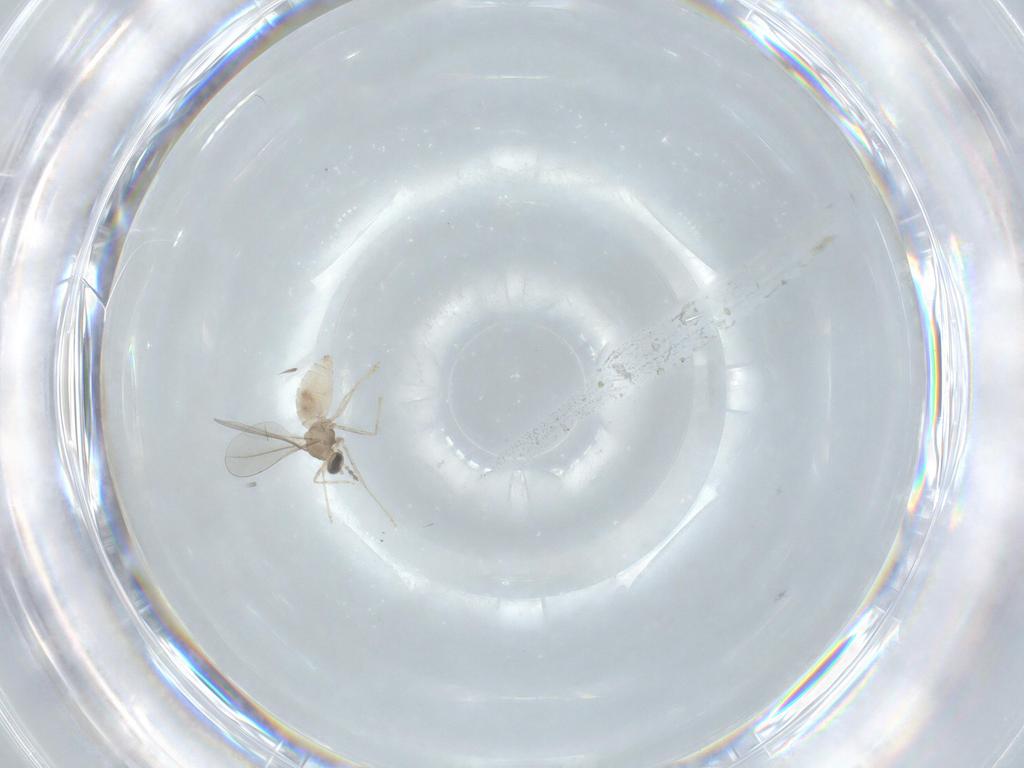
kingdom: Animalia
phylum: Arthropoda
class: Insecta
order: Diptera
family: Cecidomyiidae
